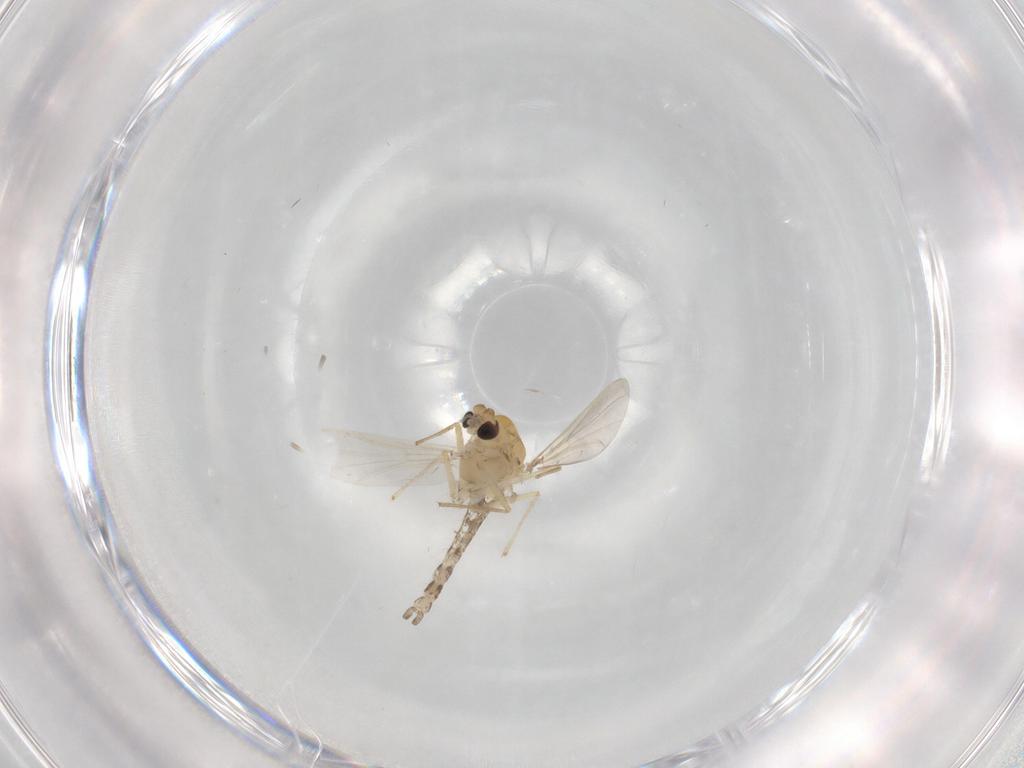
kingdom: Animalia
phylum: Arthropoda
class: Insecta
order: Diptera
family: Chironomidae
